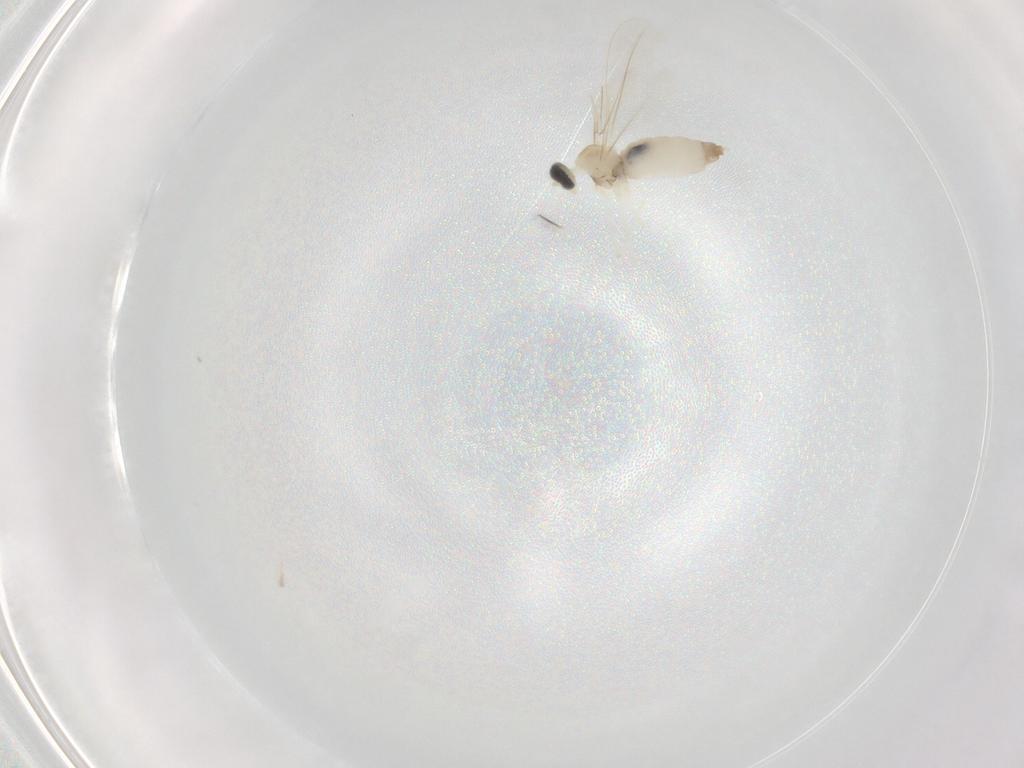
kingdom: Animalia
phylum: Arthropoda
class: Insecta
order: Diptera
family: Cecidomyiidae
